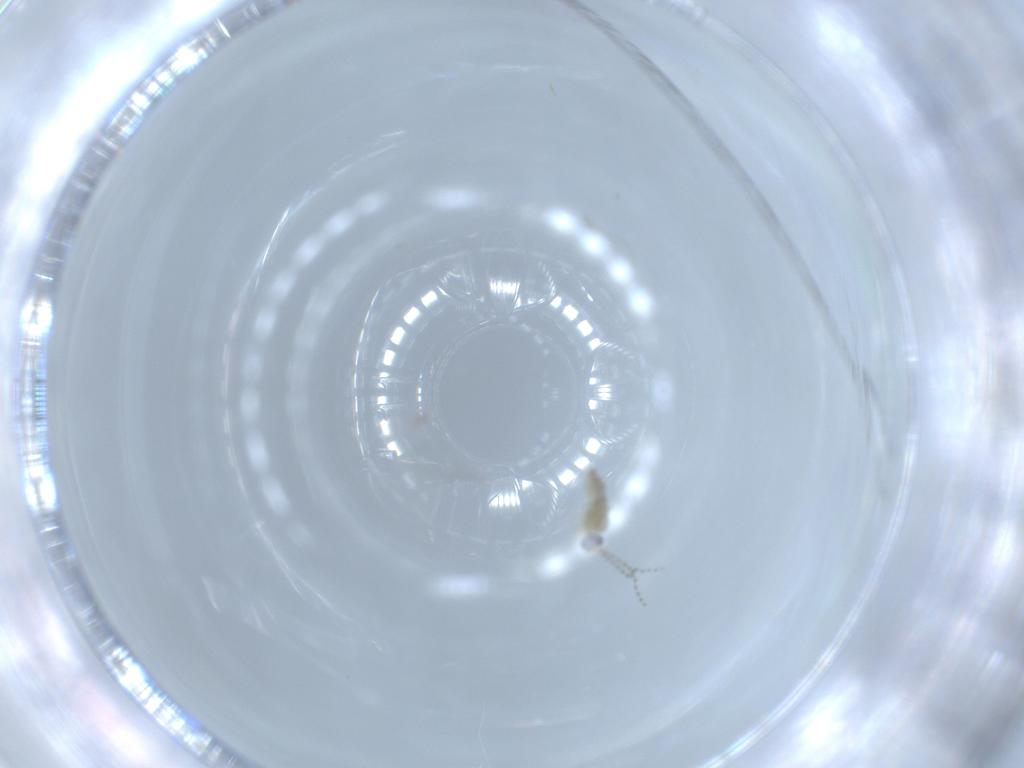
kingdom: Animalia
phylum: Arthropoda
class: Insecta
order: Diptera
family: Cecidomyiidae
